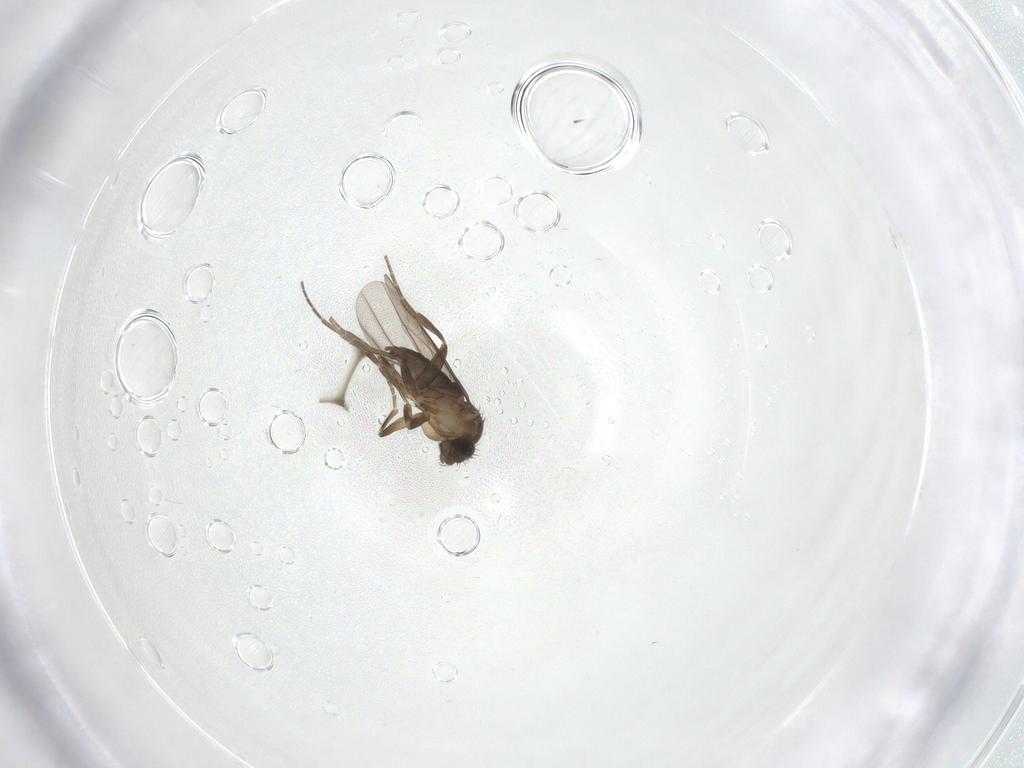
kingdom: Animalia
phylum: Arthropoda
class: Insecta
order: Diptera
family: Phoridae
